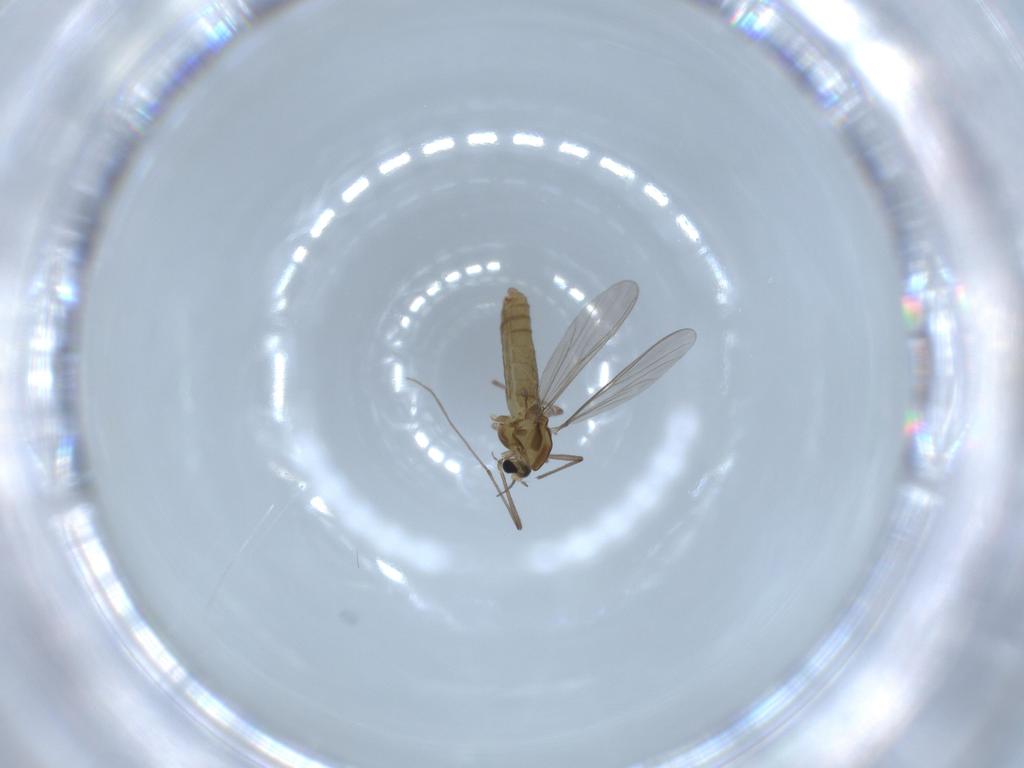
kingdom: Animalia
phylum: Arthropoda
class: Insecta
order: Diptera
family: Chironomidae
